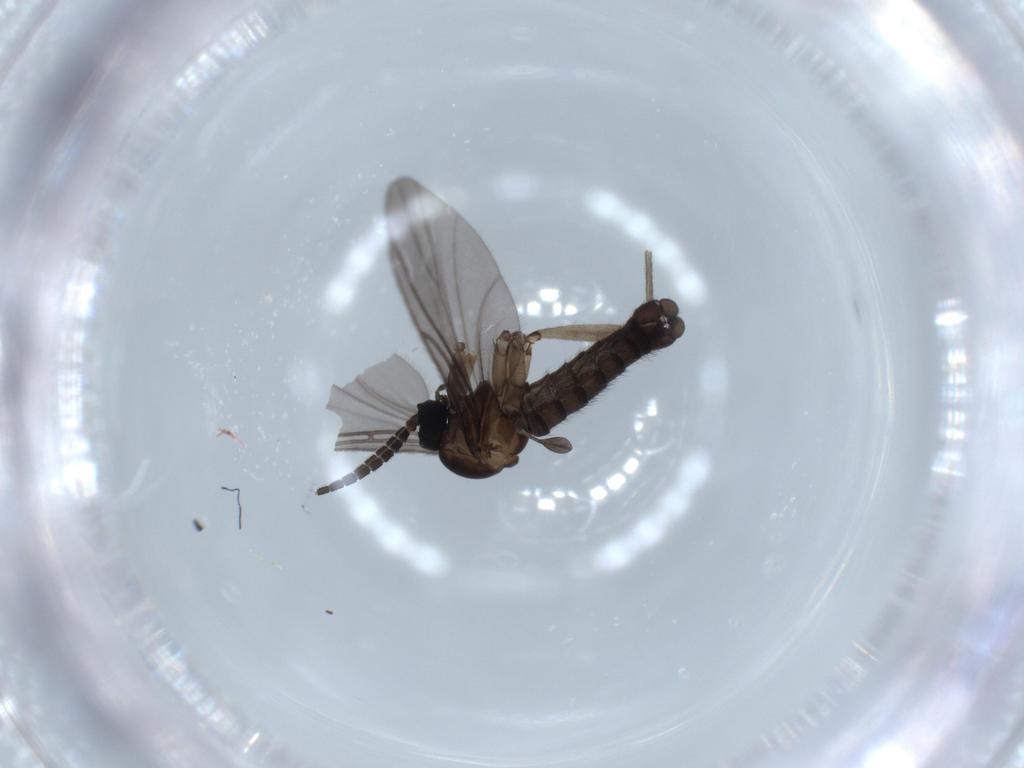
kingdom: Animalia
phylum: Arthropoda
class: Insecta
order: Diptera
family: Sciaridae
